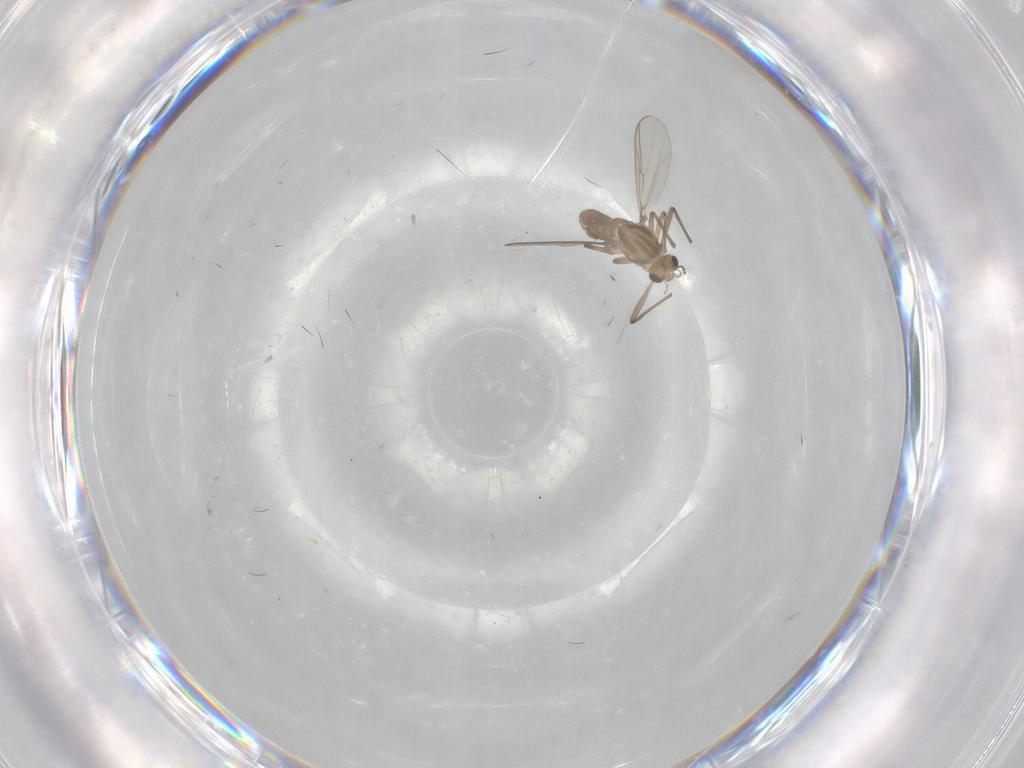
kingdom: Animalia
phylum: Arthropoda
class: Insecta
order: Diptera
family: Chironomidae
